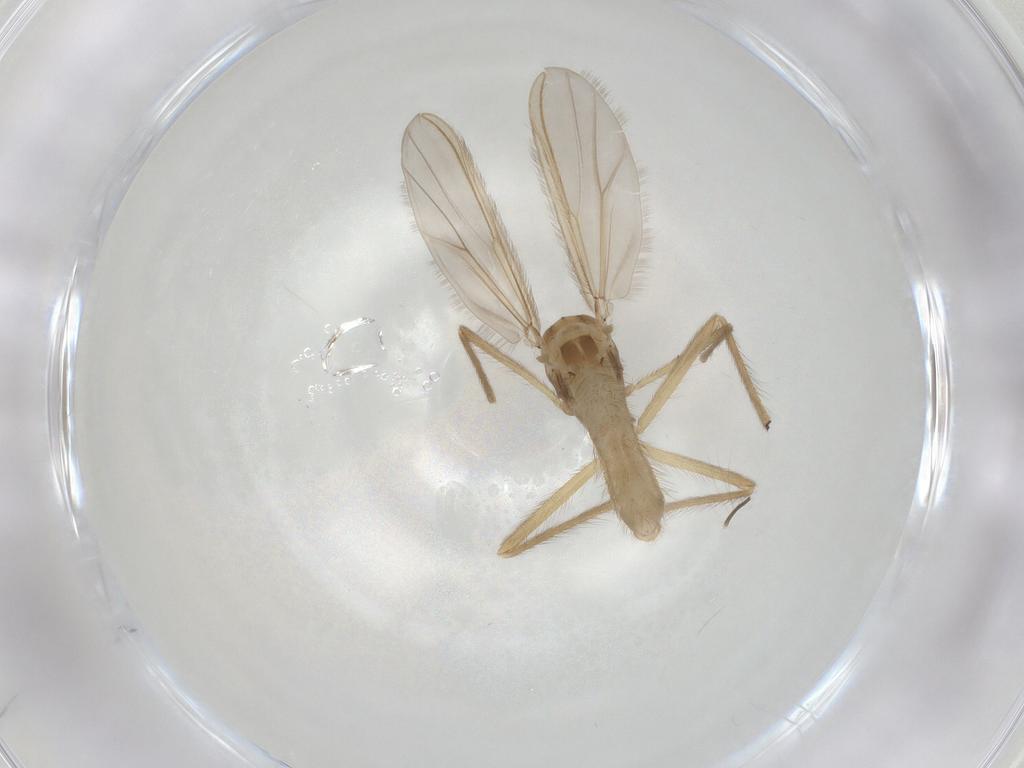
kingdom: Animalia
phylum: Arthropoda
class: Insecta
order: Diptera
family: Chironomidae
